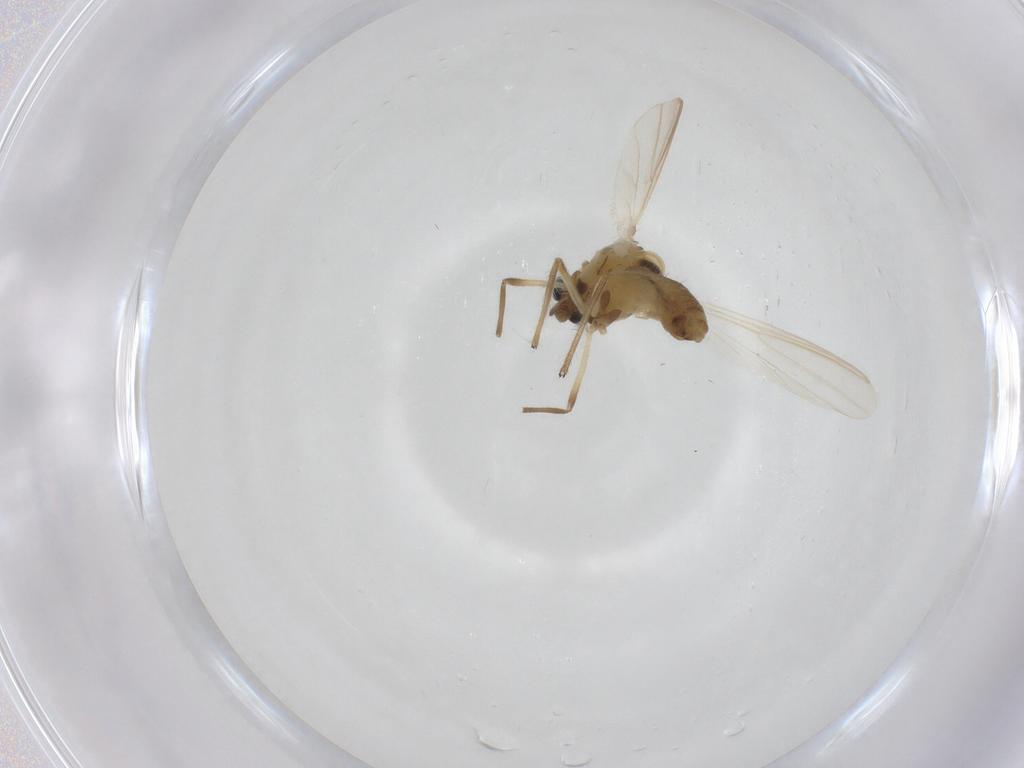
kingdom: Animalia
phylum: Arthropoda
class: Insecta
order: Diptera
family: Chironomidae
